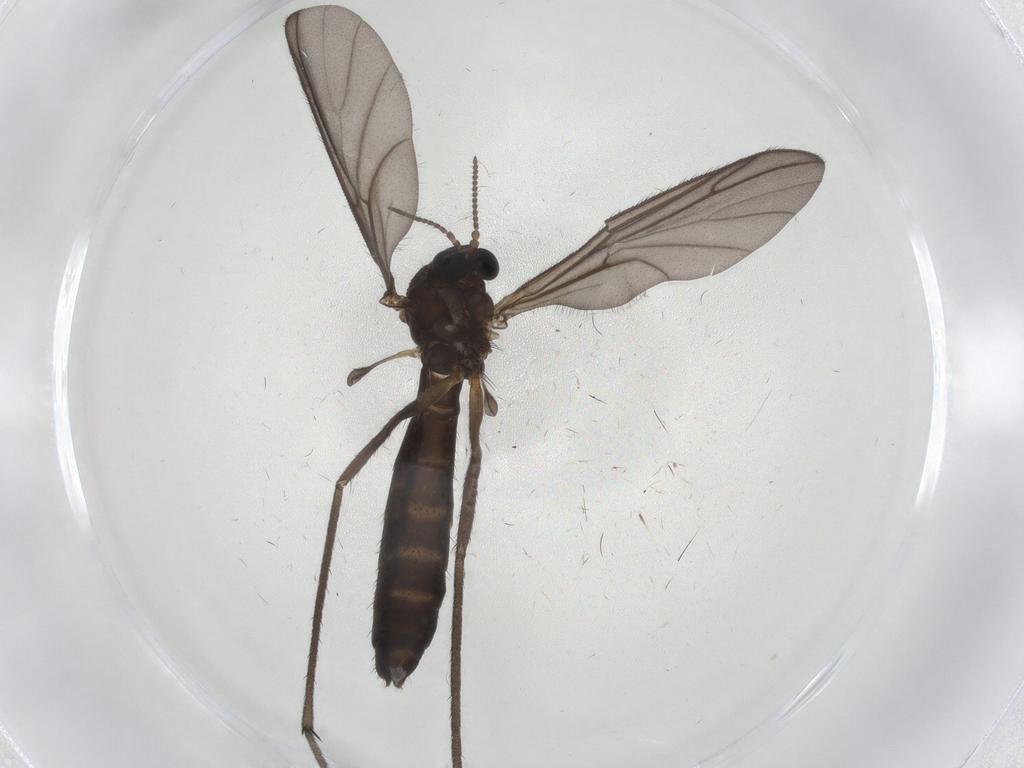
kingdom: Animalia
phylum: Arthropoda
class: Insecta
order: Diptera
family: Keroplatidae
